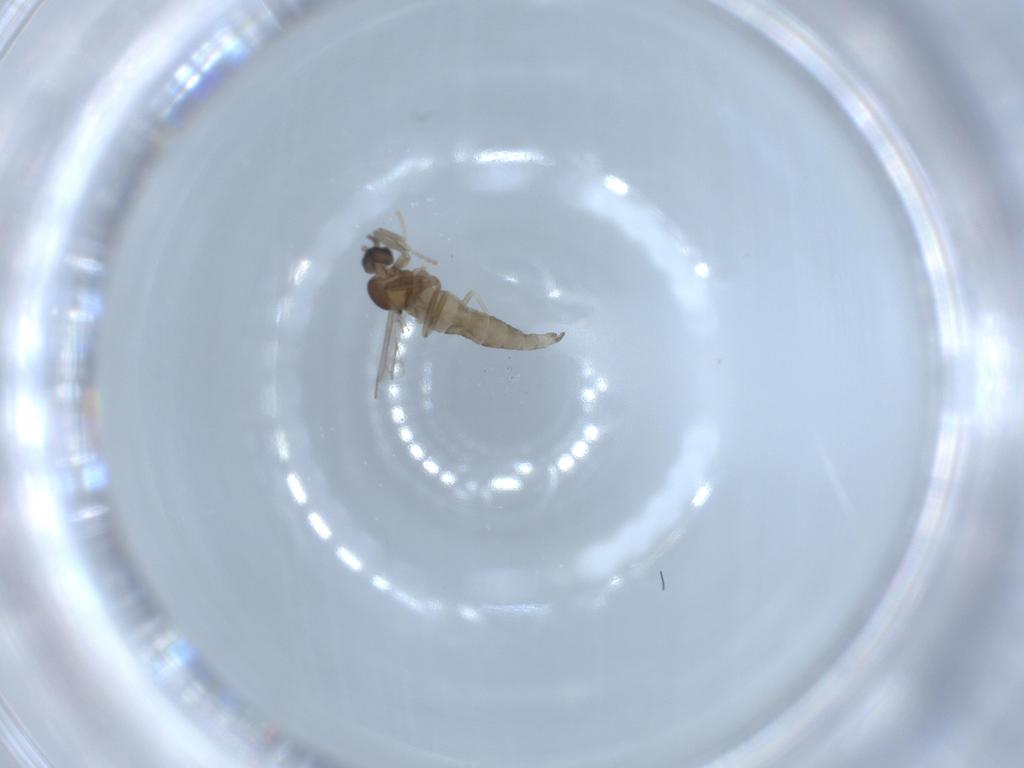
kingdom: Animalia
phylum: Arthropoda
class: Insecta
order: Diptera
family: Cecidomyiidae
